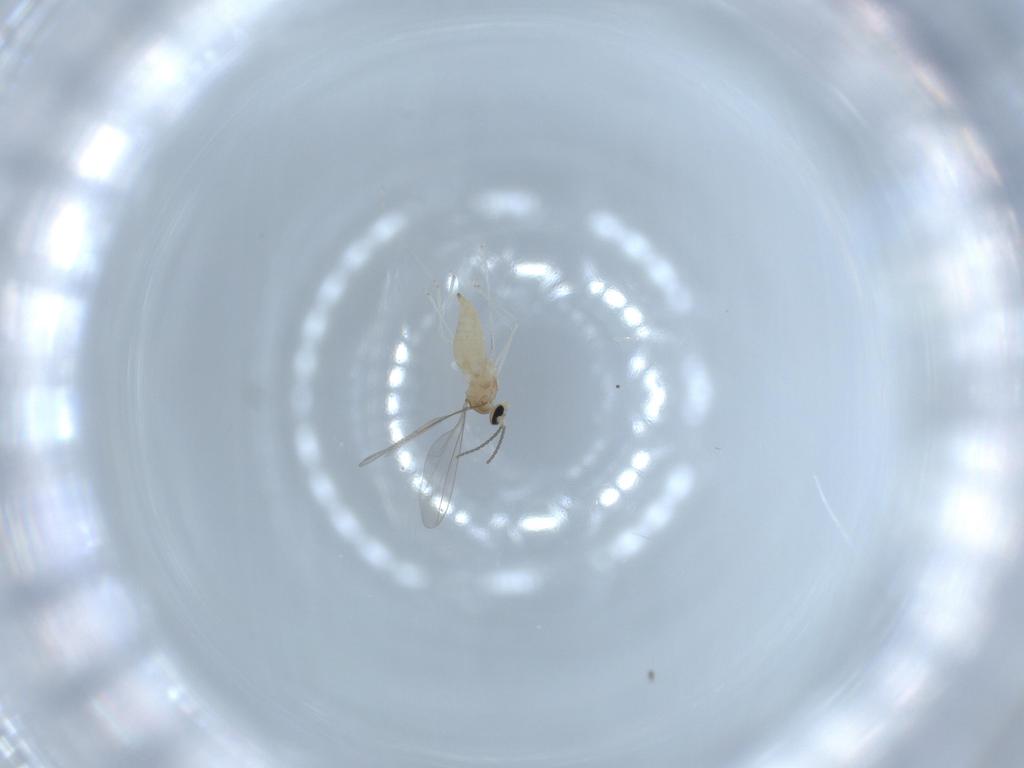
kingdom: Animalia
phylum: Arthropoda
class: Insecta
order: Diptera
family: Cecidomyiidae
